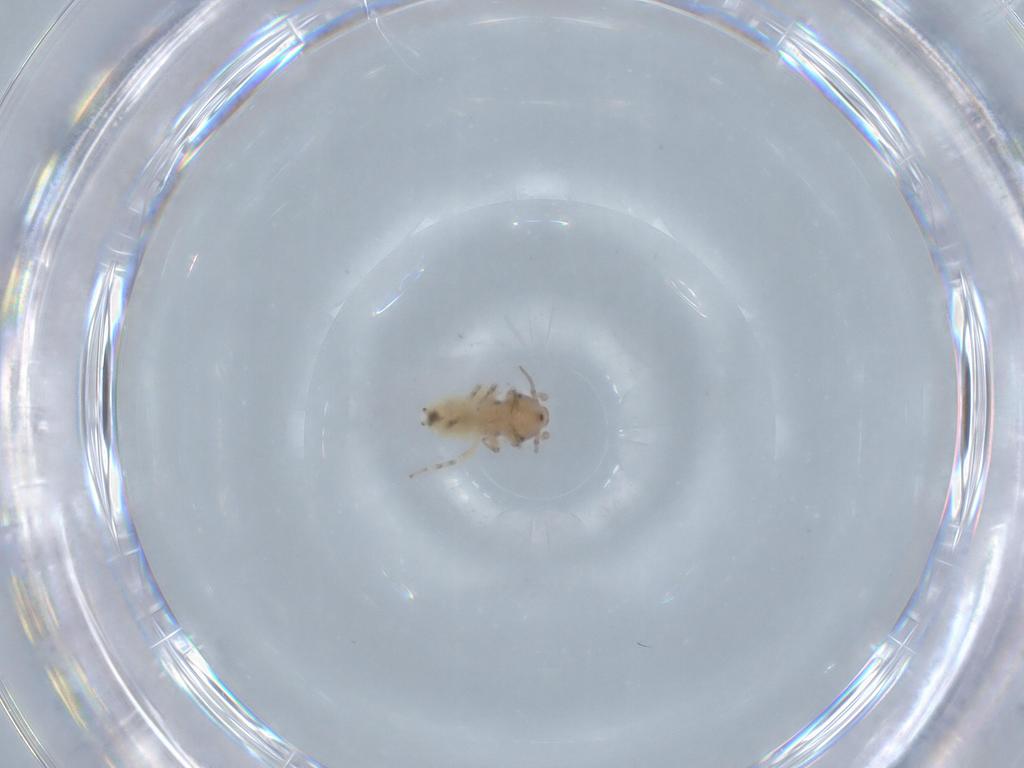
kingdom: Animalia
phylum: Arthropoda
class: Insecta
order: Psocodea
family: Lepidopsocidae
